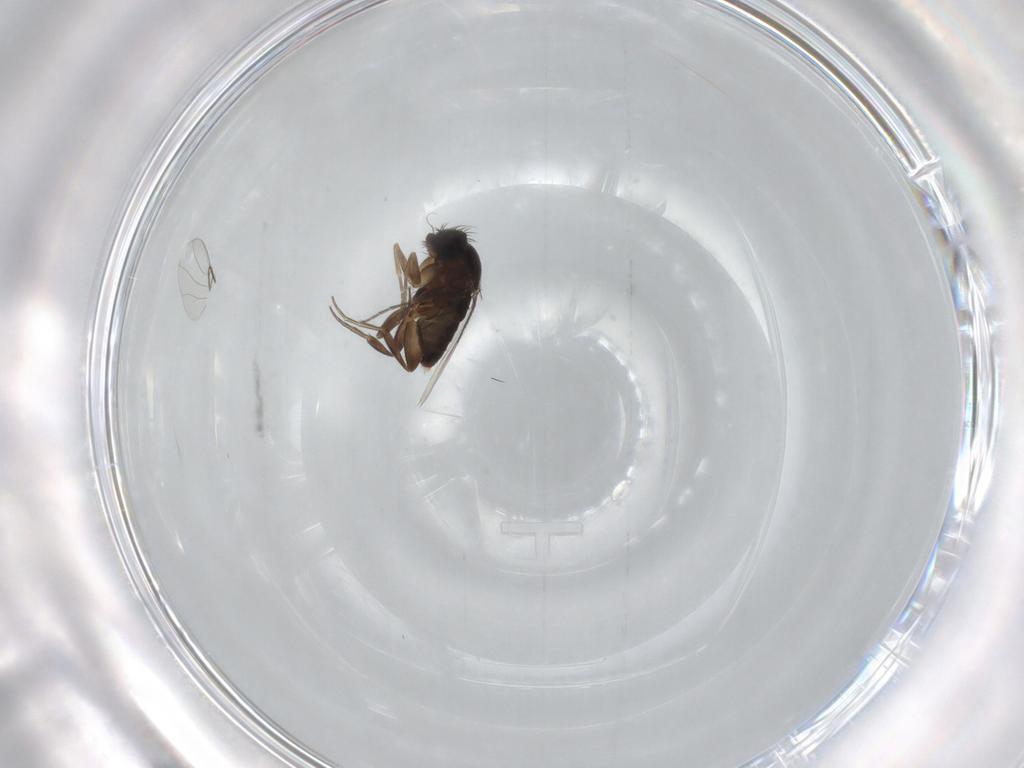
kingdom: Animalia
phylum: Arthropoda
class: Insecta
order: Diptera
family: Phoridae
